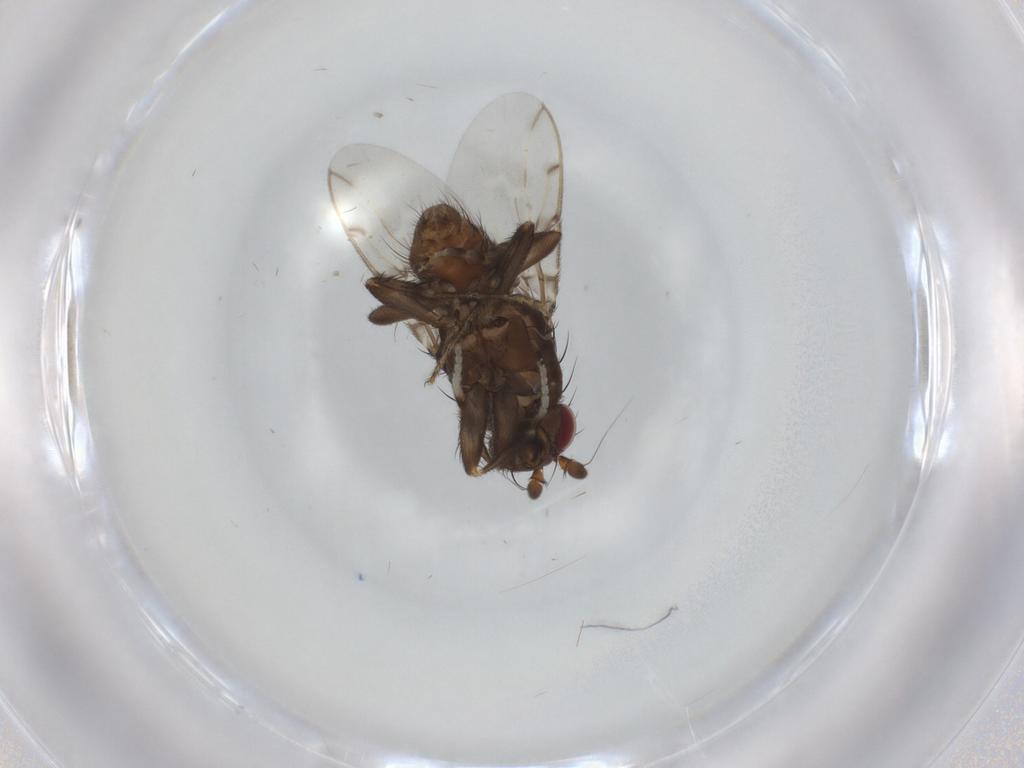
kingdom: Animalia
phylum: Arthropoda
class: Insecta
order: Diptera
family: Sphaeroceridae
